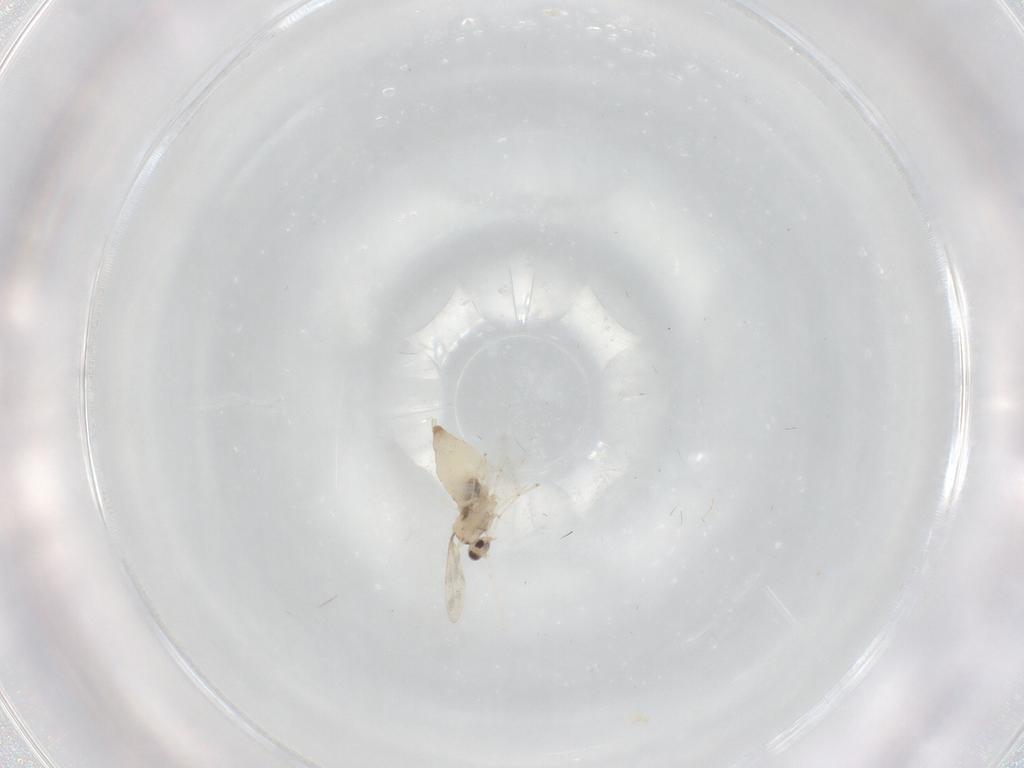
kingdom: Animalia
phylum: Arthropoda
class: Insecta
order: Diptera
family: Cecidomyiidae
